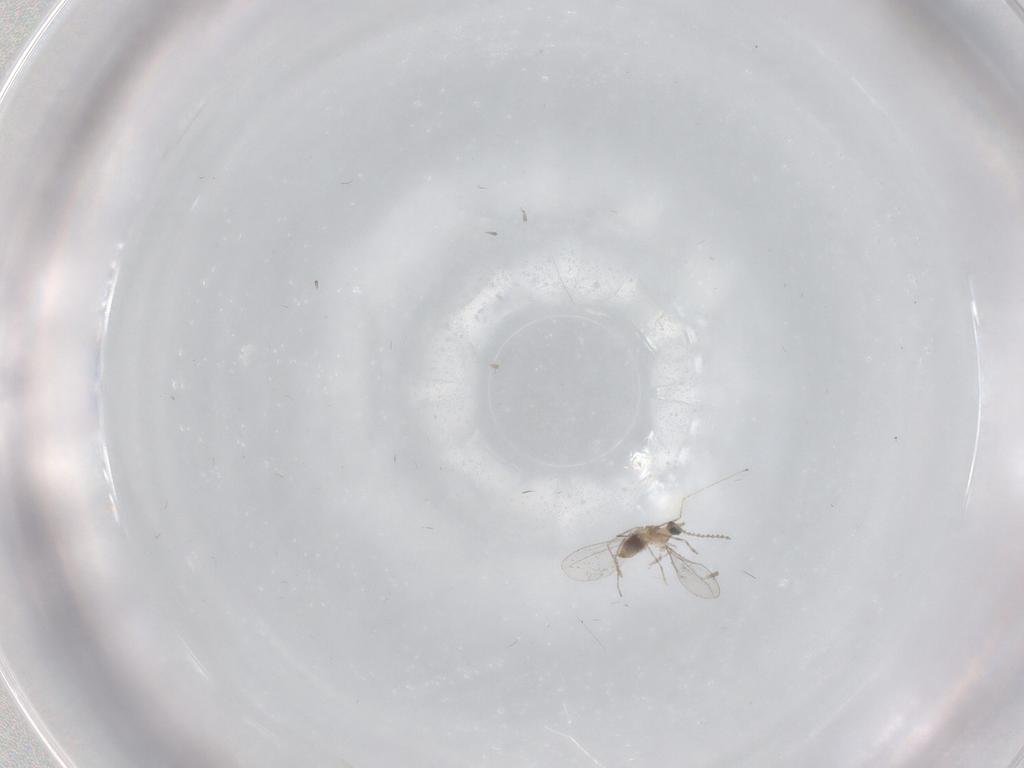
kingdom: Animalia
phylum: Arthropoda
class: Insecta
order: Diptera
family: Cecidomyiidae
